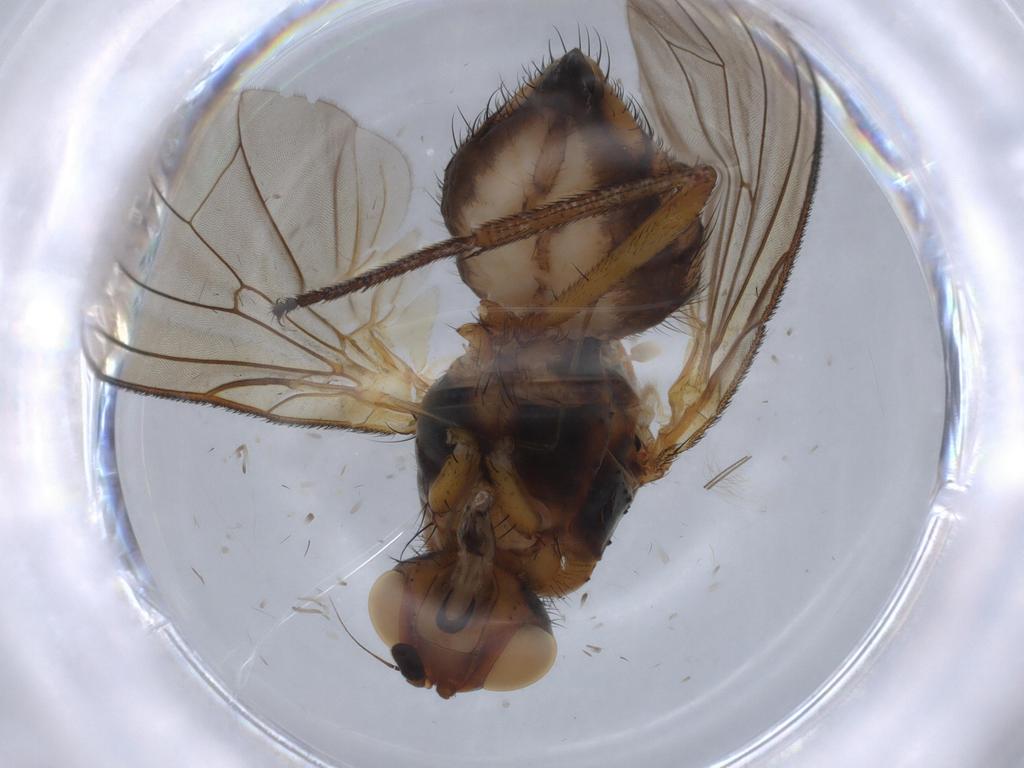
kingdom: Animalia
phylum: Arthropoda
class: Insecta
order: Diptera
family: Anthomyiidae
